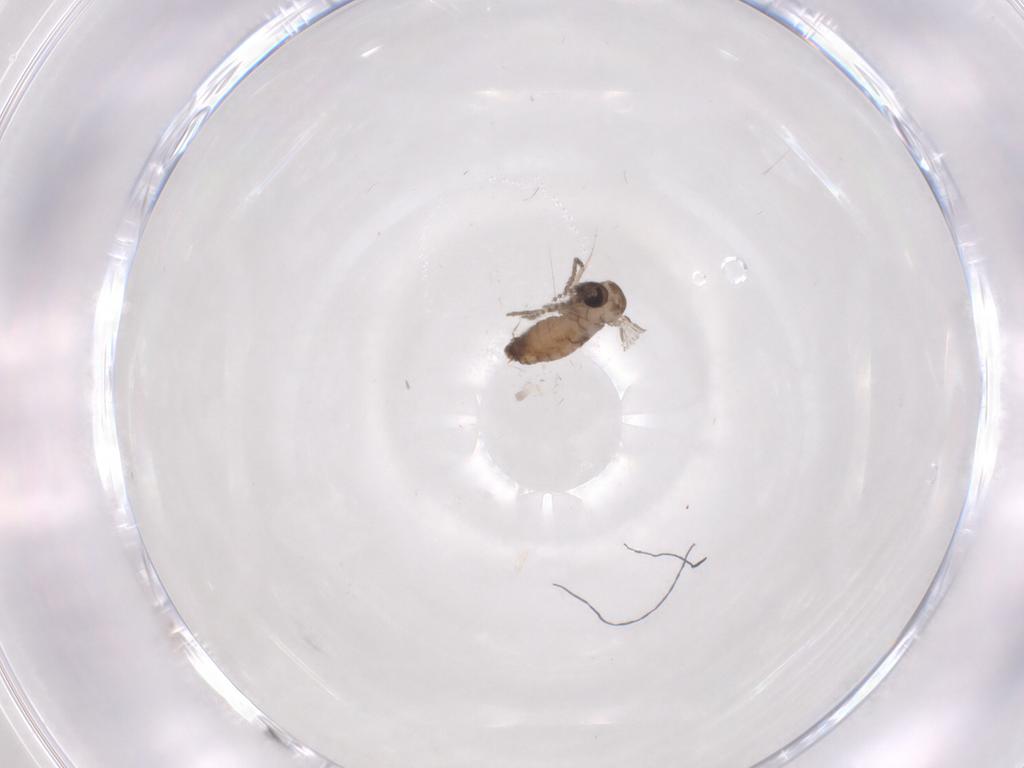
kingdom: Animalia
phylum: Arthropoda
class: Insecta
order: Diptera
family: Psychodidae
